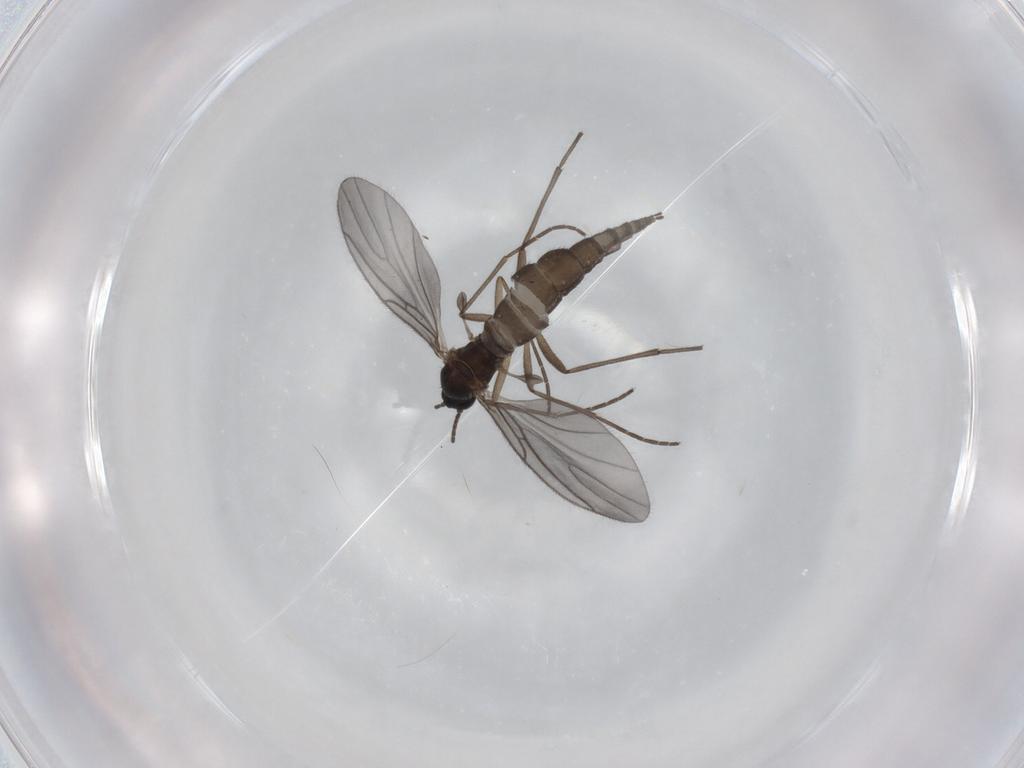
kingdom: Animalia
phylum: Arthropoda
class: Insecta
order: Diptera
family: Sciaridae
